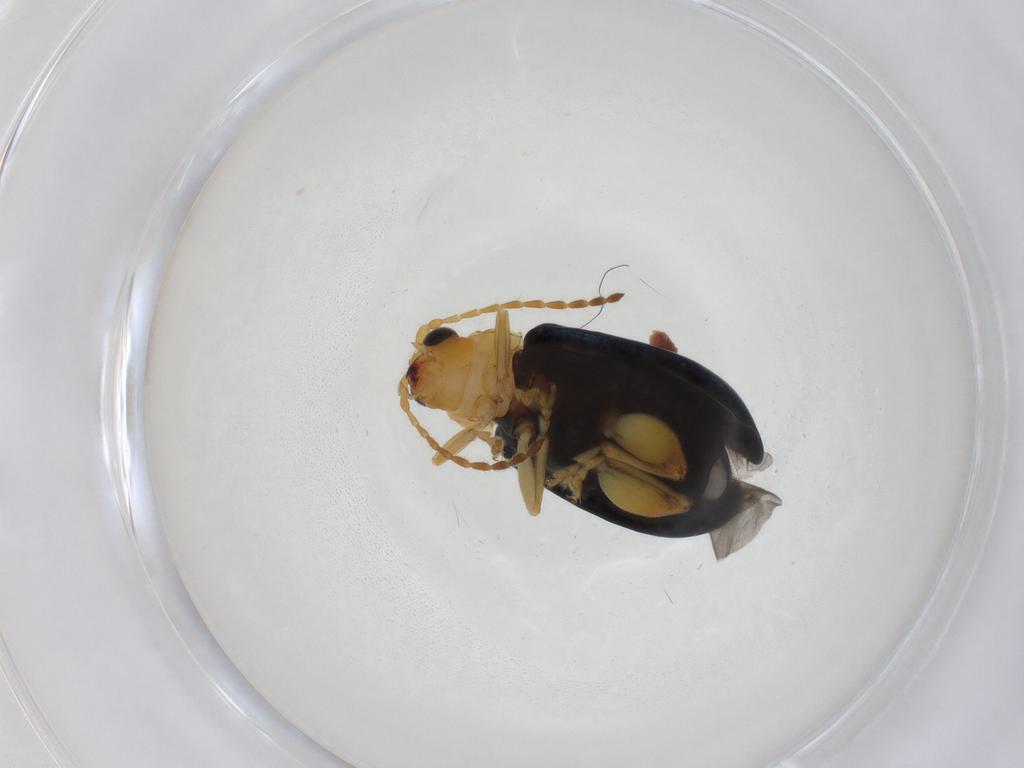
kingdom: Animalia
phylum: Arthropoda
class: Insecta
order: Coleoptera
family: Chrysomelidae
